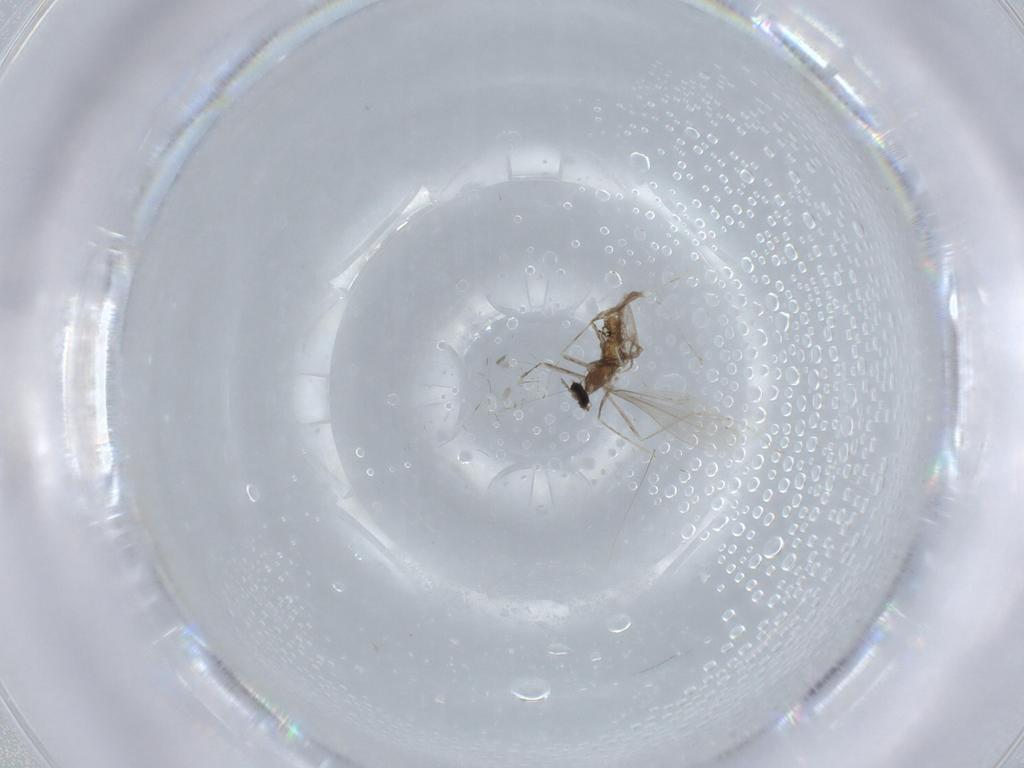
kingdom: Animalia
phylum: Arthropoda
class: Insecta
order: Diptera
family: Cecidomyiidae
